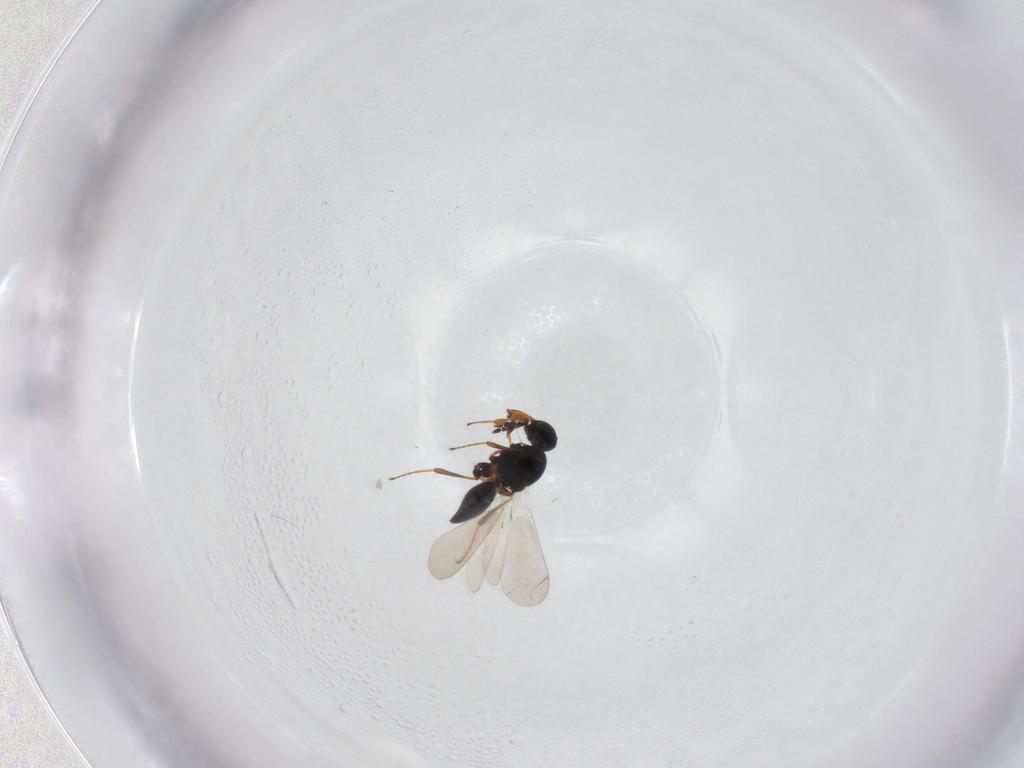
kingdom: Animalia
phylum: Arthropoda
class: Insecta
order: Hymenoptera
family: Platygastridae
